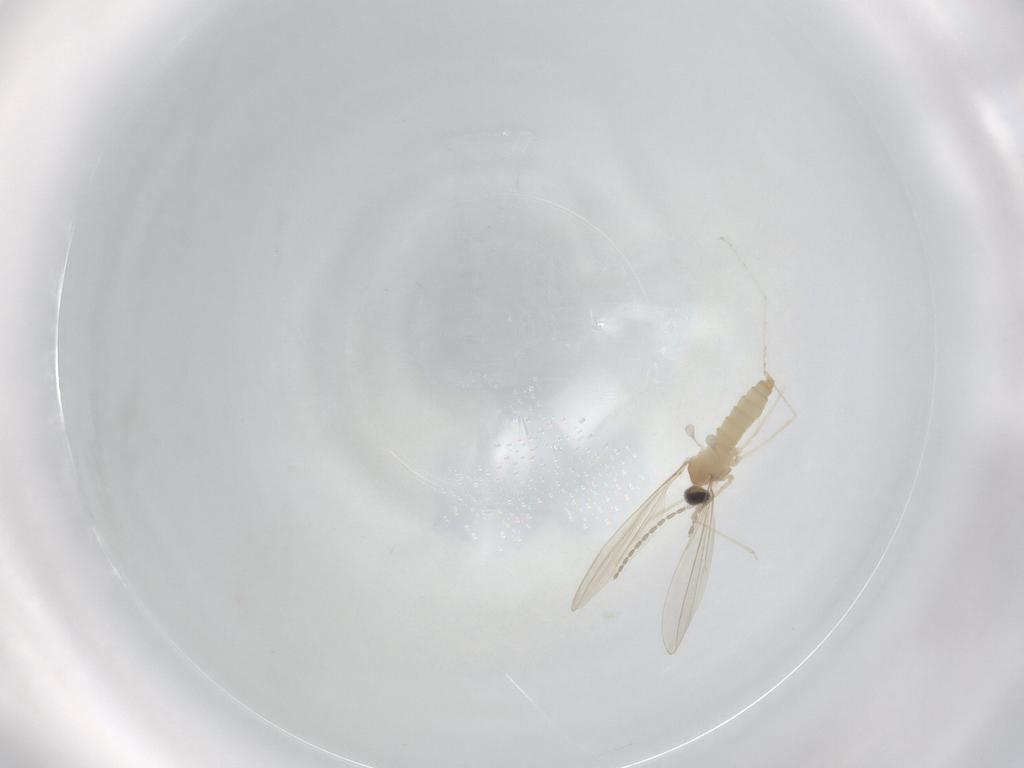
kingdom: Animalia
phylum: Arthropoda
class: Insecta
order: Diptera
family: Cecidomyiidae
